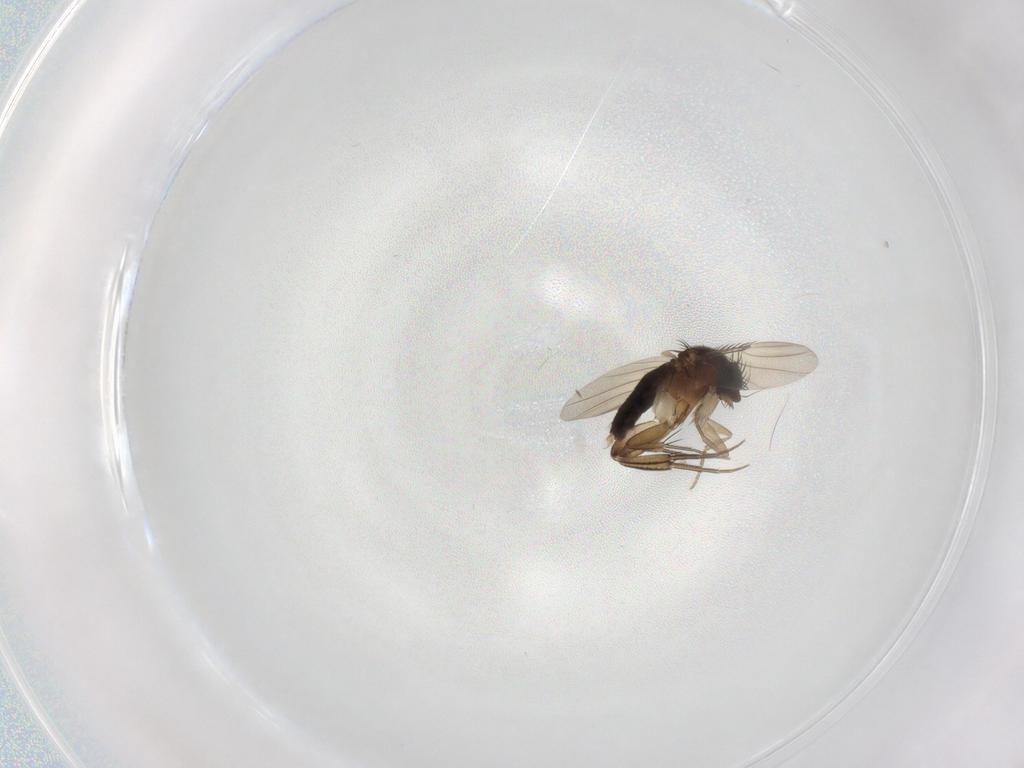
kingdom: Animalia
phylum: Arthropoda
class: Insecta
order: Diptera
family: Phoridae
